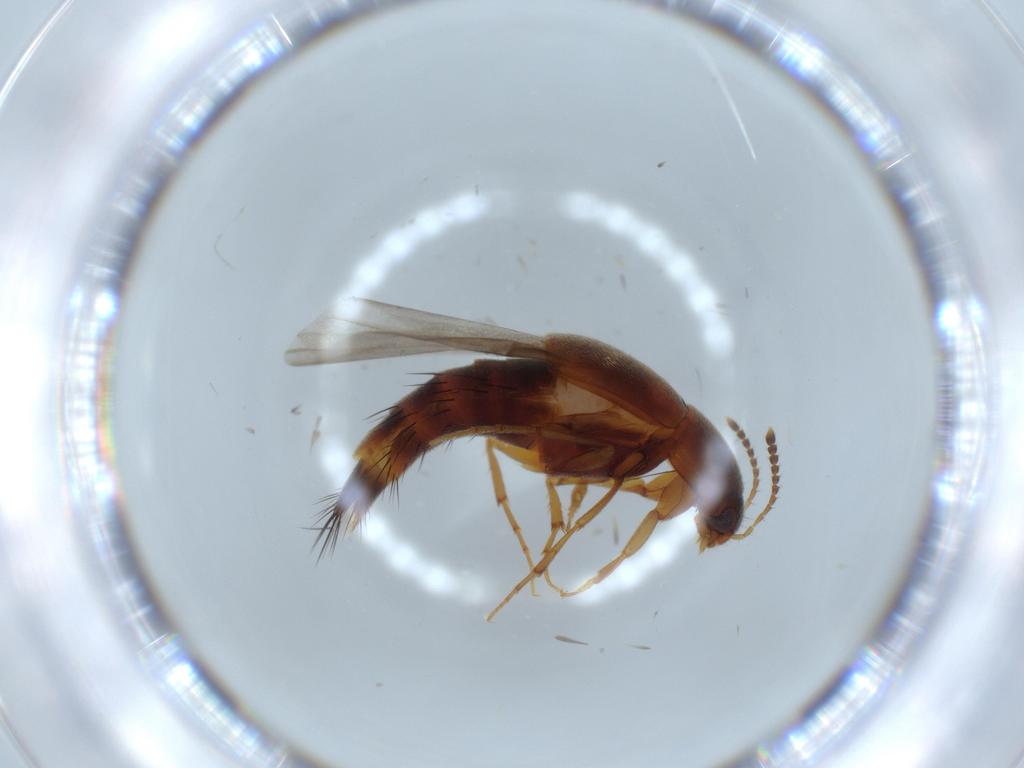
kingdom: Animalia
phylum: Arthropoda
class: Insecta
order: Coleoptera
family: Staphylinidae
